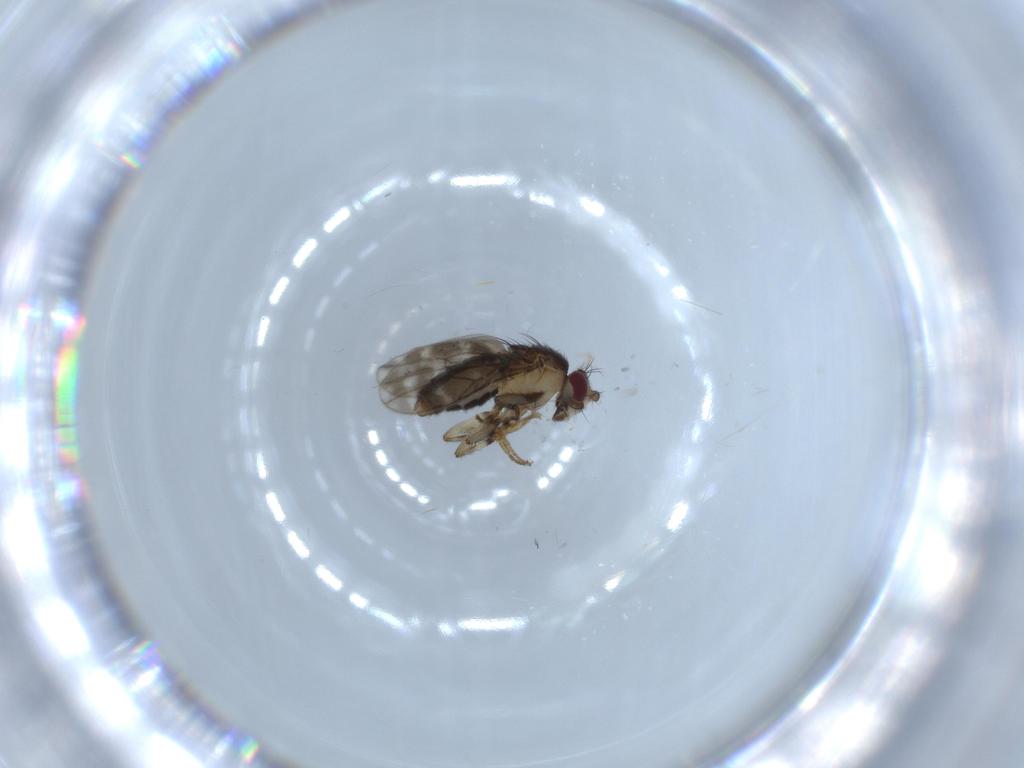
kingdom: Animalia
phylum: Arthropoda
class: Insecta
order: Diptera
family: Sphaeroceridae
